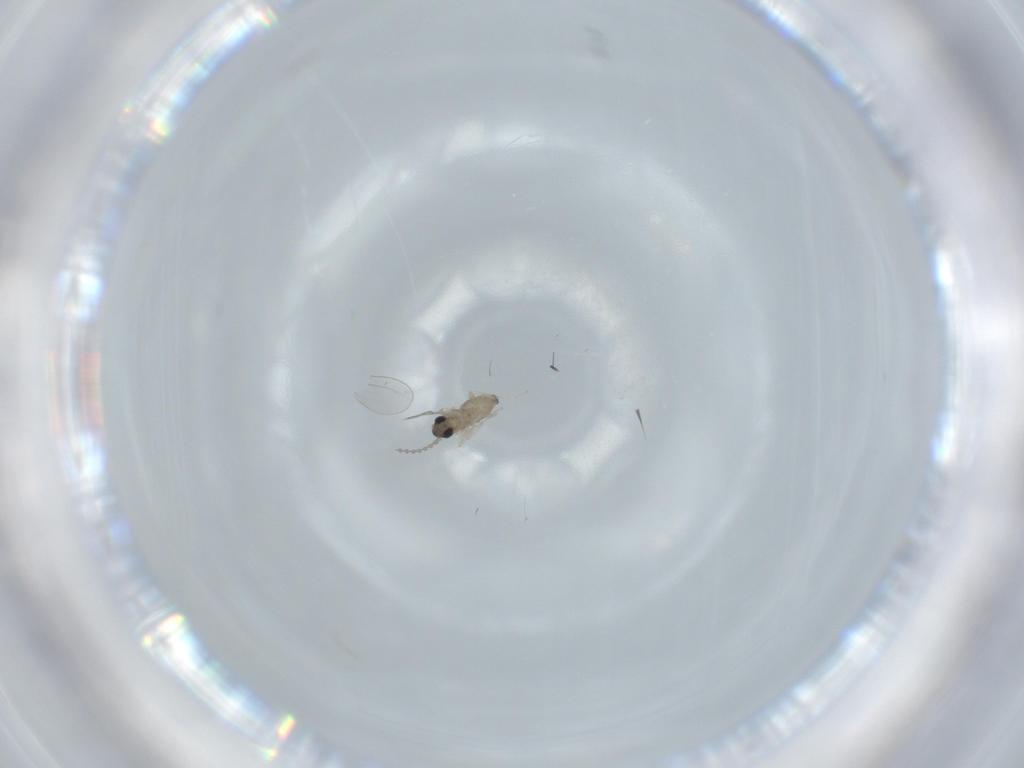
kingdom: Animalia
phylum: Arthropoda
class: Insecta
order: Diptera
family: Cecidomyiidae
